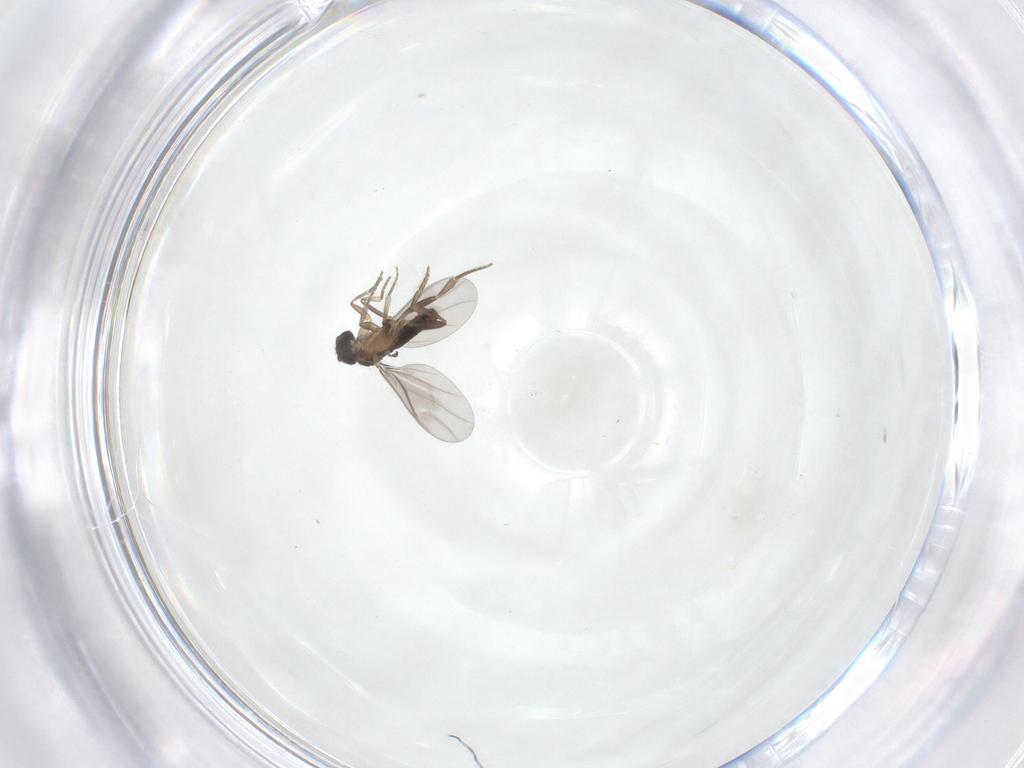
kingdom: Animalia
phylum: Arthropoda
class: Insecta
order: Diptera
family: Phoridae
